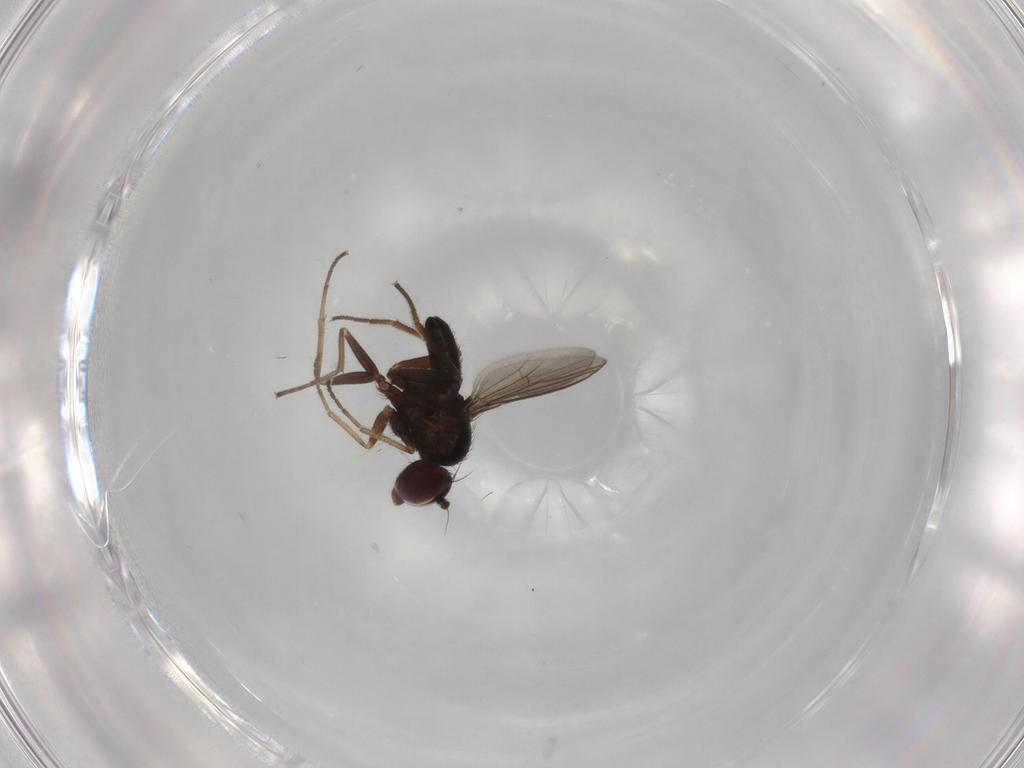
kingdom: Animalia
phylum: Arthropoda
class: Insecta
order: Diptera
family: Dolichopodidae
